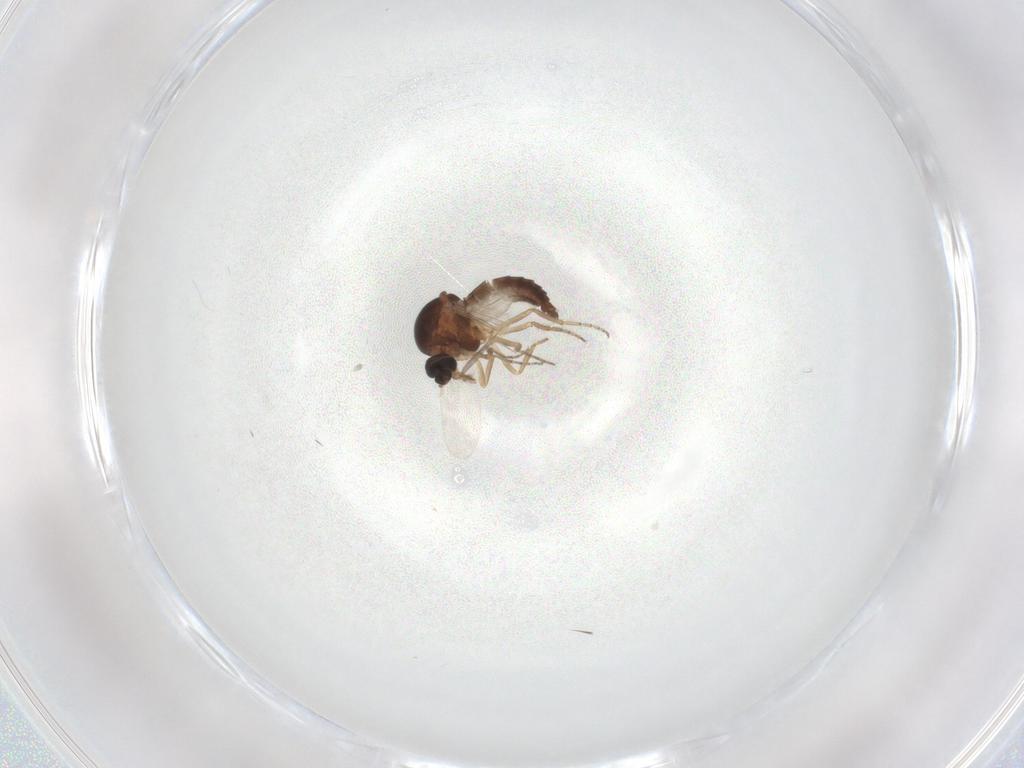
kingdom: Animalia
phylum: Arthropoda
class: Insecta
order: Diptera
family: Ceratopogonidae
